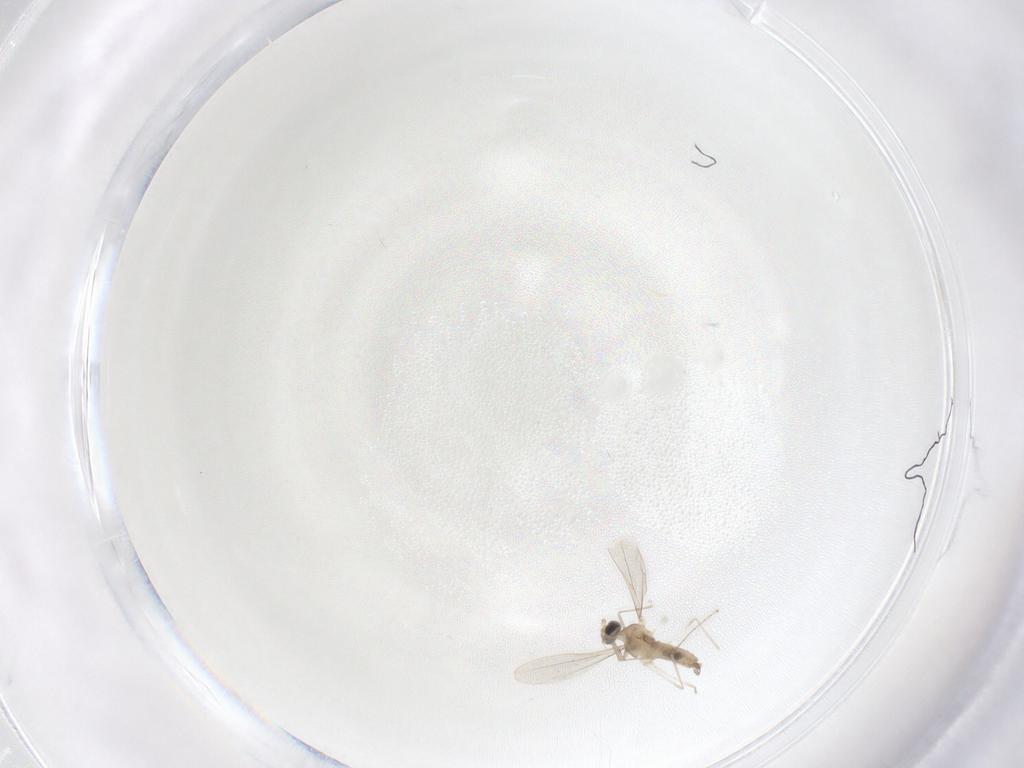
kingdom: Animalia
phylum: Arthropoda
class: Insecta
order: Diptera
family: Cecidomyiidae
